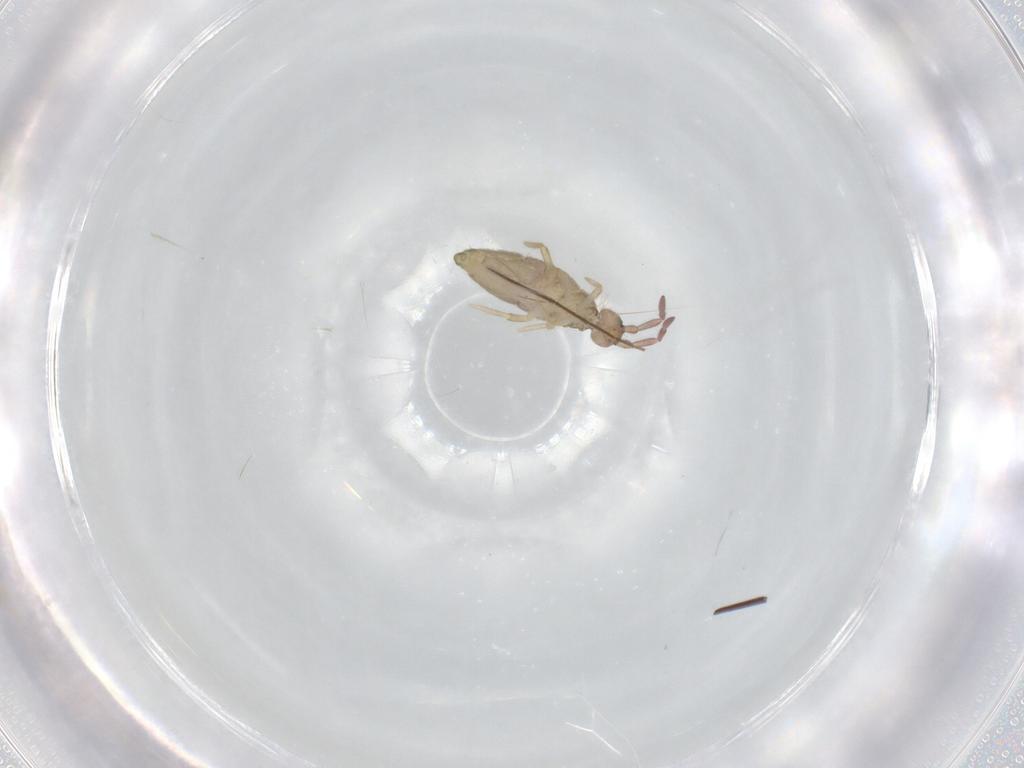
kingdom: Animalia
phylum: Arthropoda
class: Collembola
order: Entomobryomorpha
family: Entomobryidae
